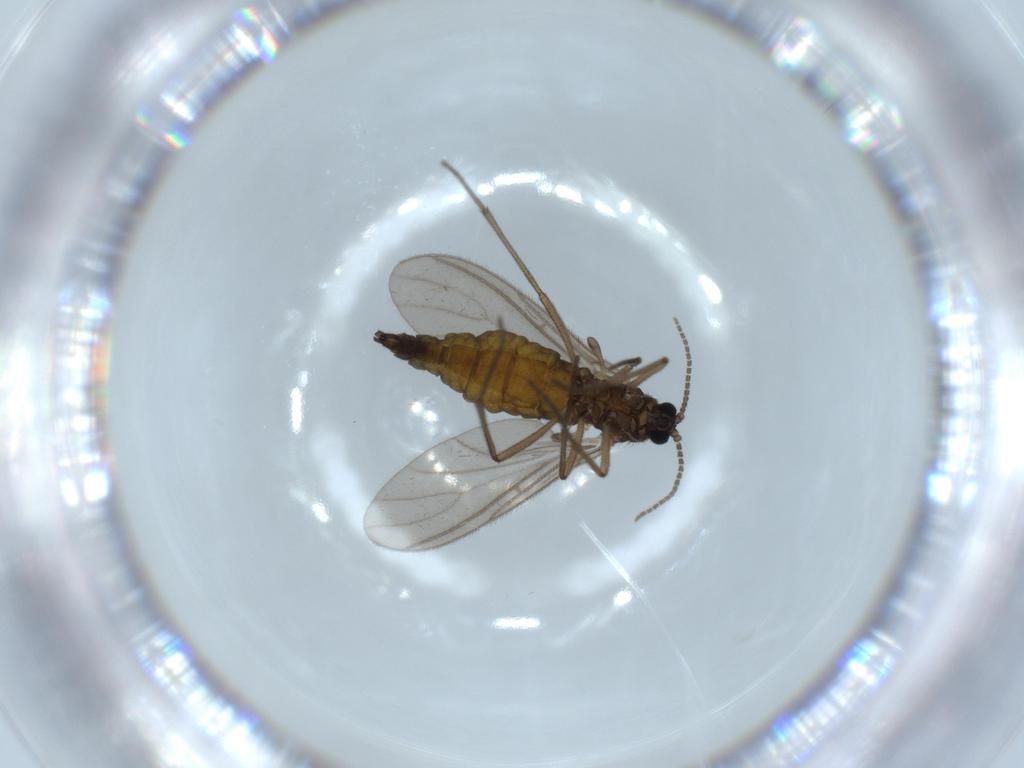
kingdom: Animalia
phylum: Arthropoda
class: Insecta
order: Diptera
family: Sciaridae
